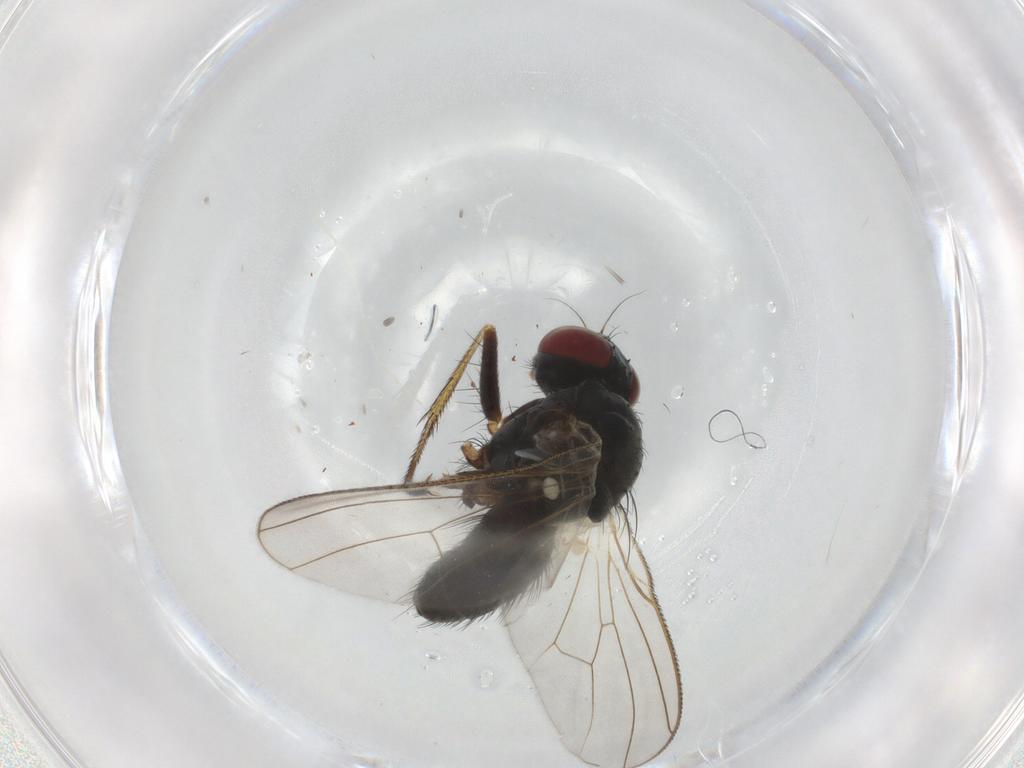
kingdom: Animalia
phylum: Arthropoda
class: Insecta
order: Diptera
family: Muscidae
